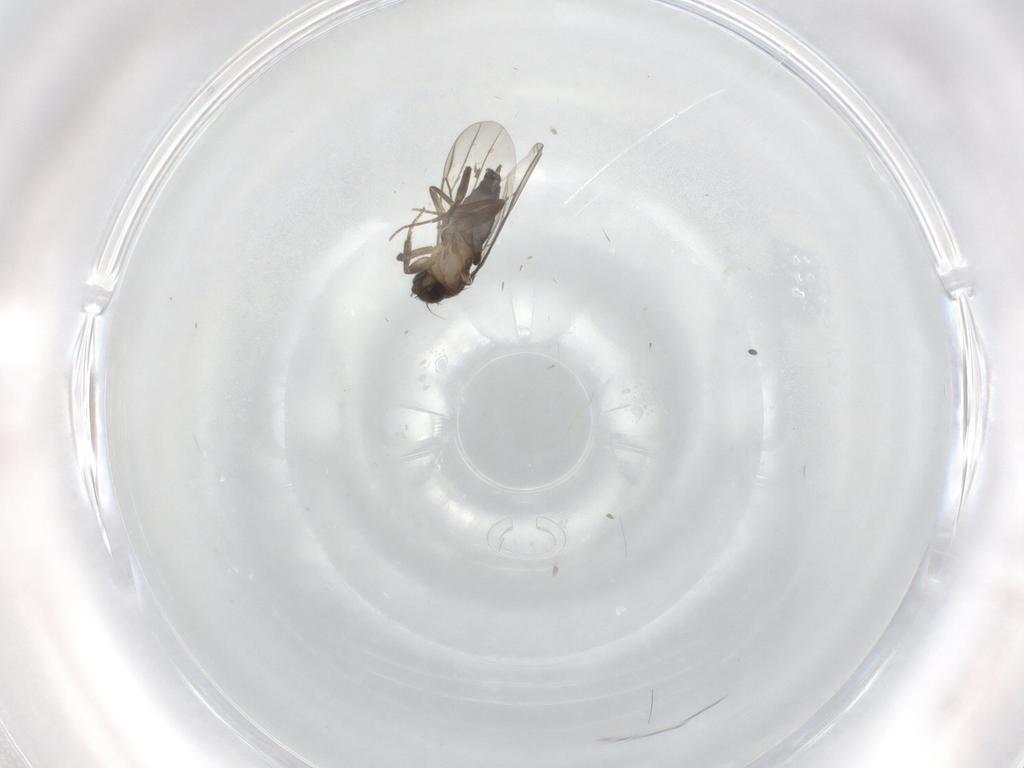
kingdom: Animalia
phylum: Arthropoda
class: Insecta
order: Diptera
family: Phoridae
